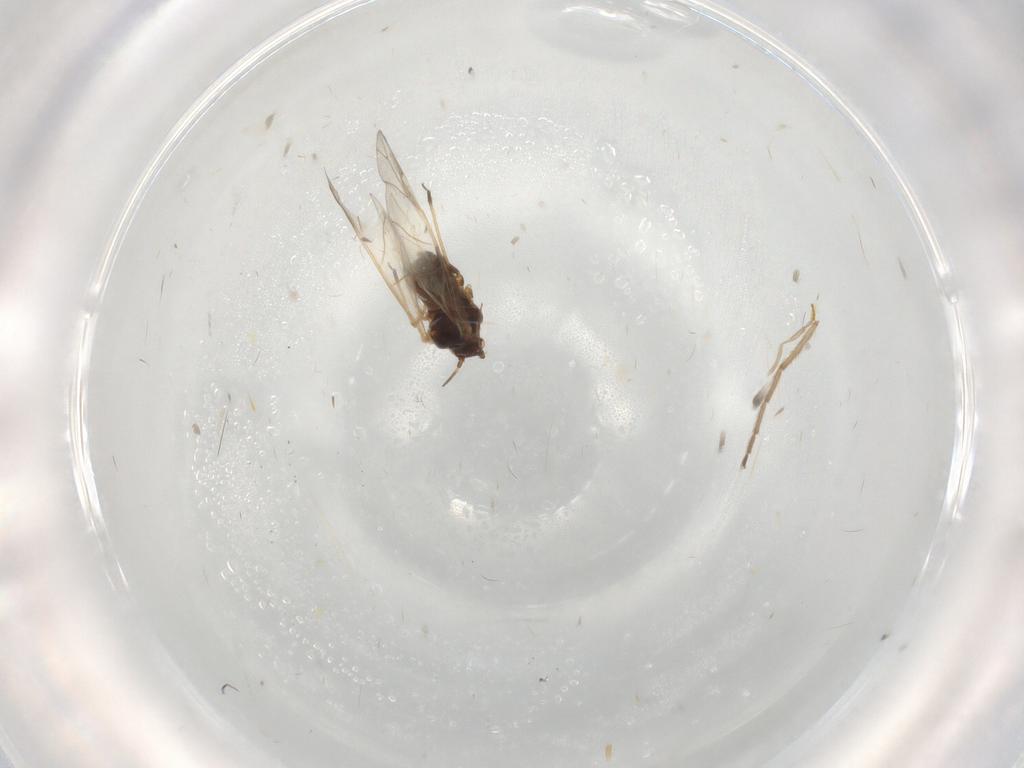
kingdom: Animalia
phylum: Arthropoda
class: Insecta
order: Hemiptera
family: Aphididae
